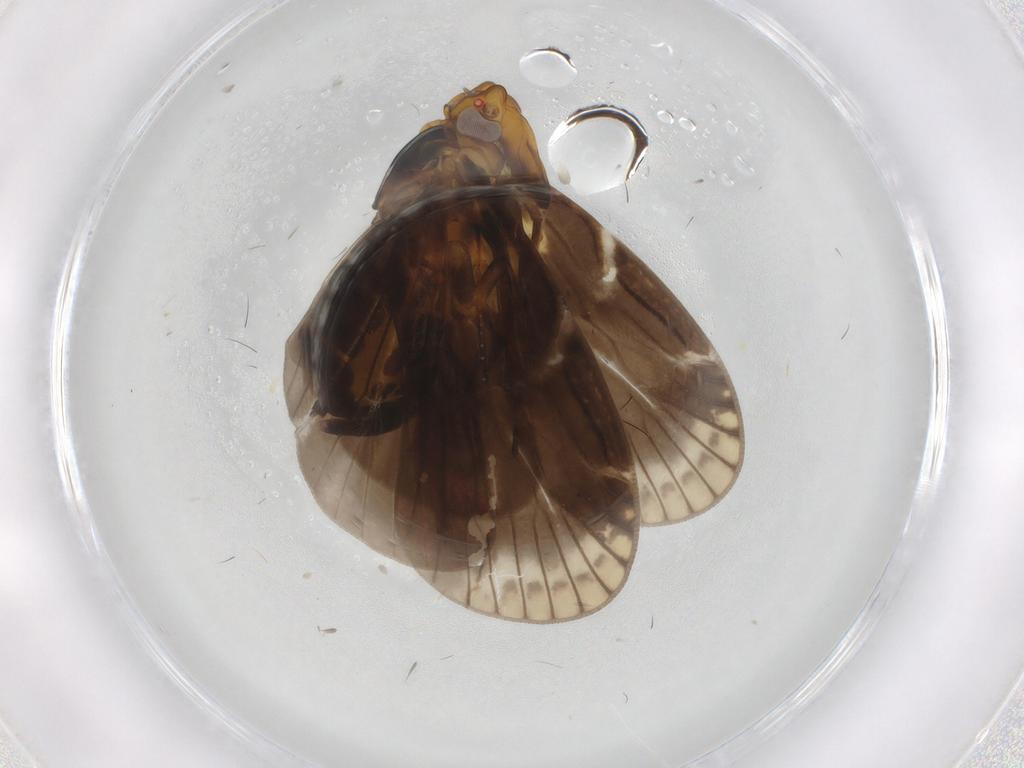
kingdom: Animalia
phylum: Arthropoda
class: Insecta
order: Hemiptera
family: Cixiidae
